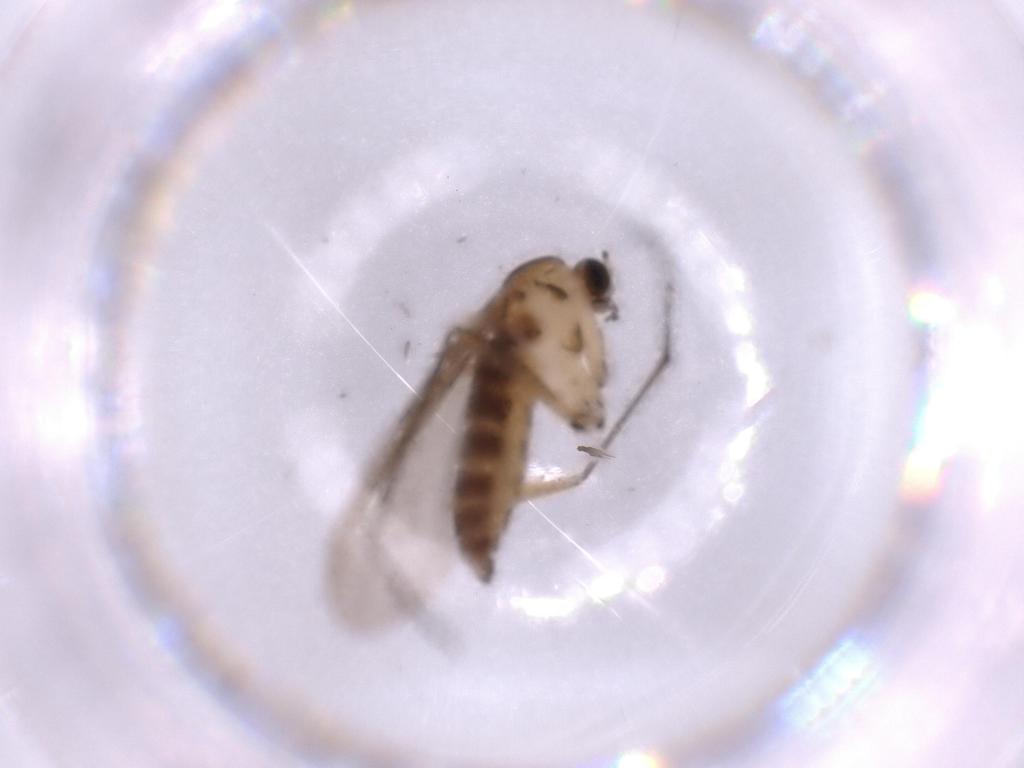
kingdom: Animalia
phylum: Arthropoda
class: Insecta
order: Diptera
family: Sciaridae
